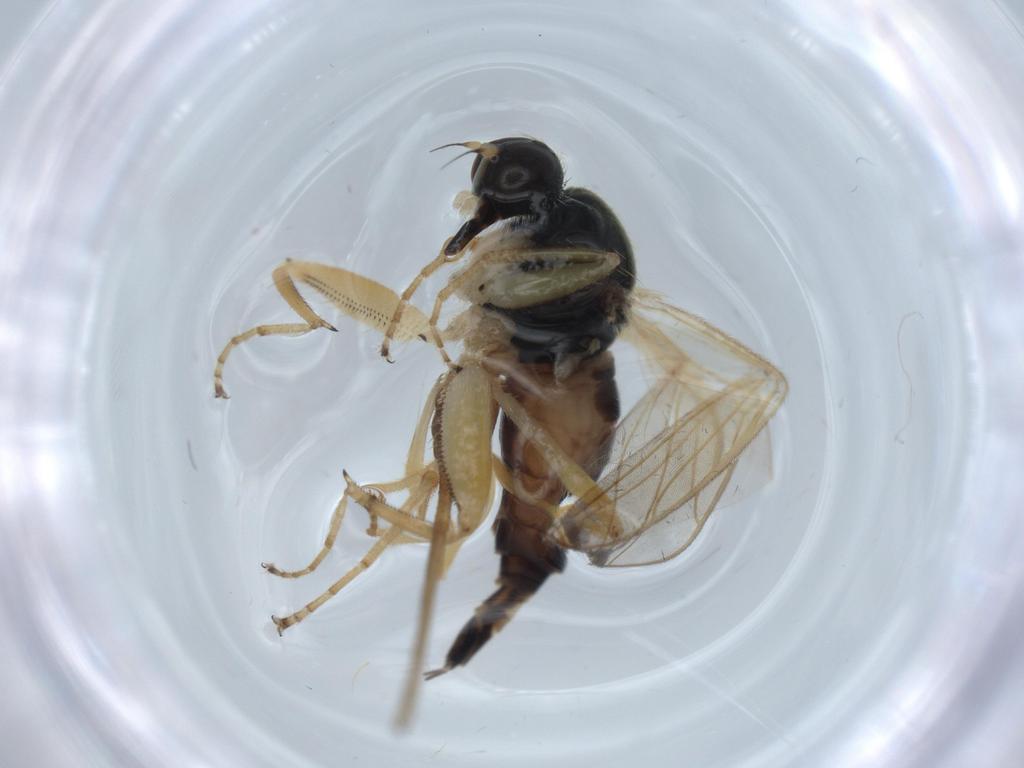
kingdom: Animalia
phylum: Arthropoda
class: Insecta
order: Diptera
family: Hybotidae
